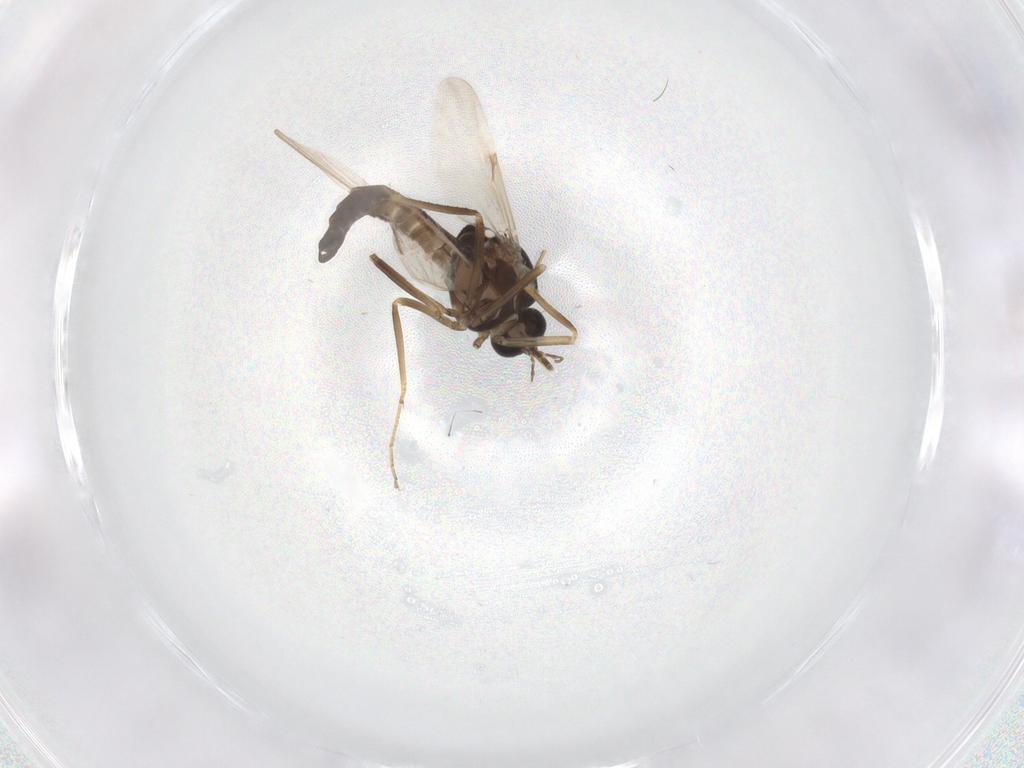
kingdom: Animalia
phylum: Arthropoda
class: Insecta
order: Diptera
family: Ceratopogonidae
